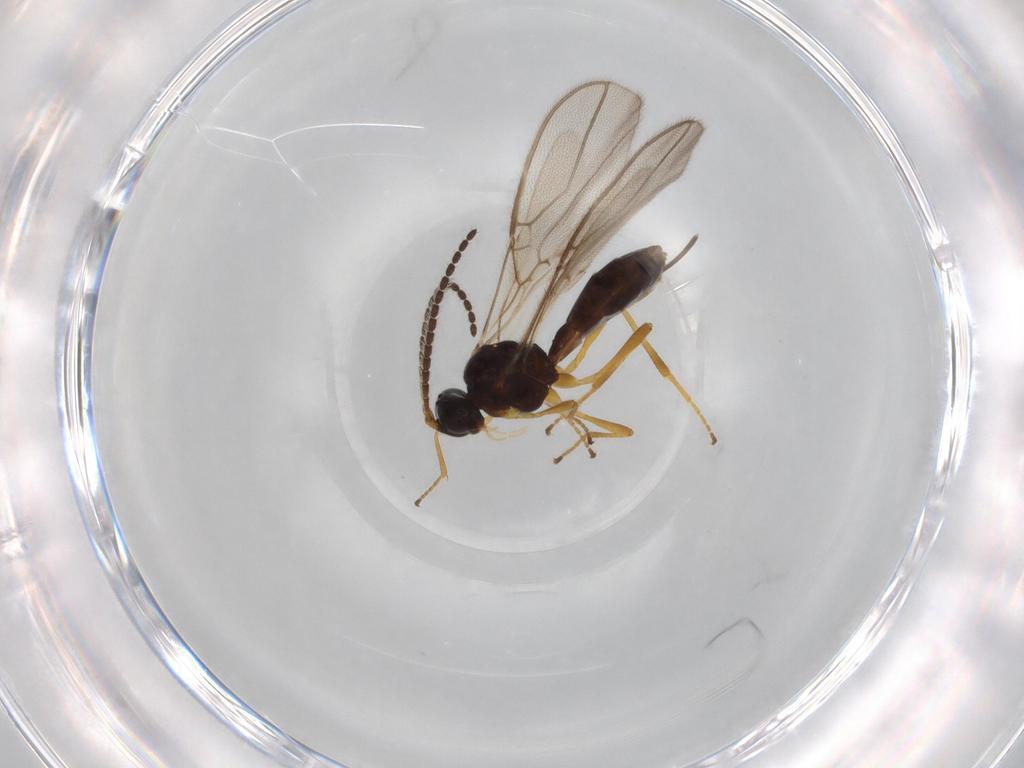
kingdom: Animalia
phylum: Arthropoda
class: Insecta
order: Hymenoptera
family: Braconidae
